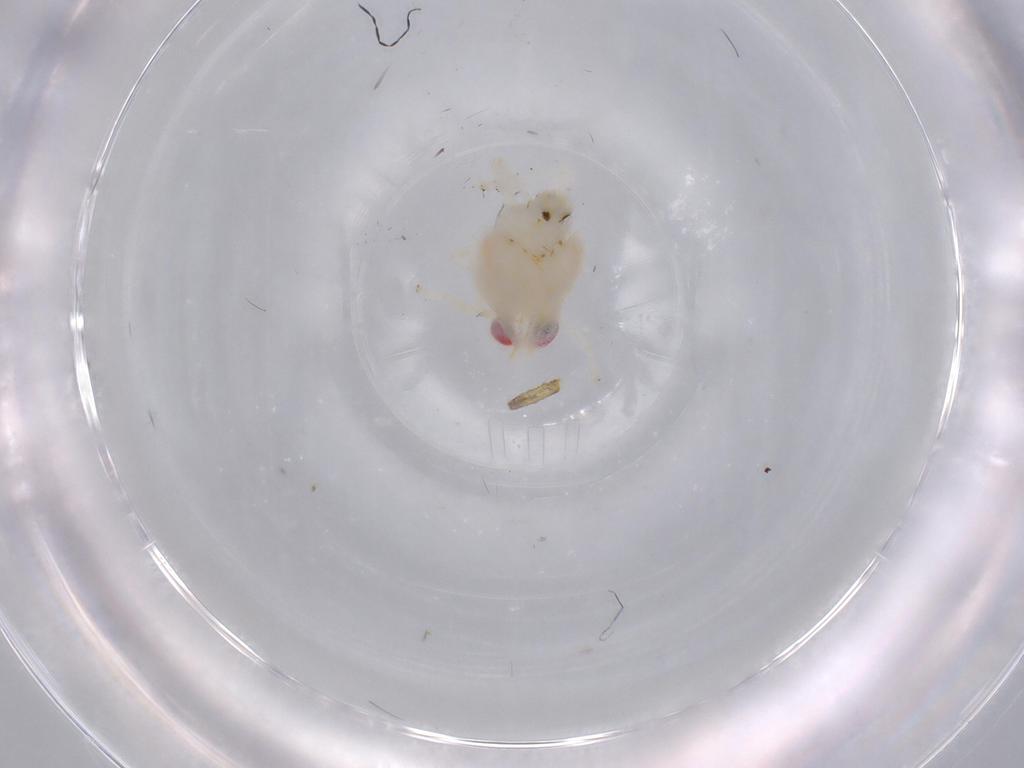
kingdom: Animalia
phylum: Arthropoda
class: Insecta
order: Hemiptera
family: Nogodinidae
